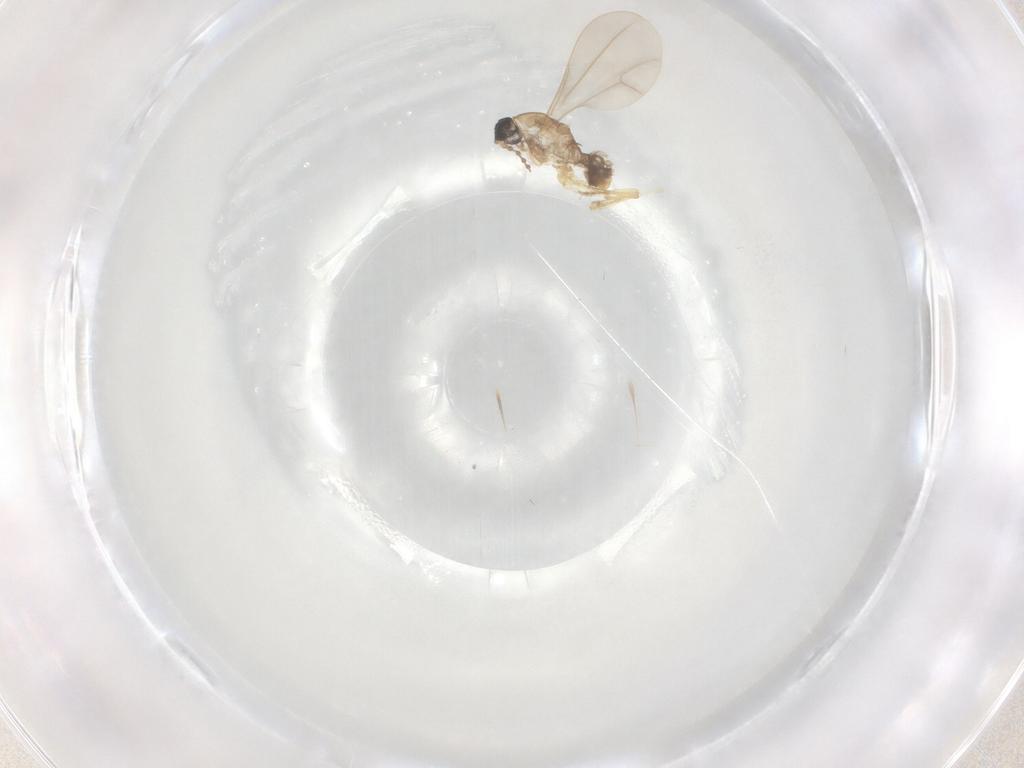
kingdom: Animalia
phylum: Arthropoda
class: Insecta
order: Diptera
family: Cecidomyiidae
